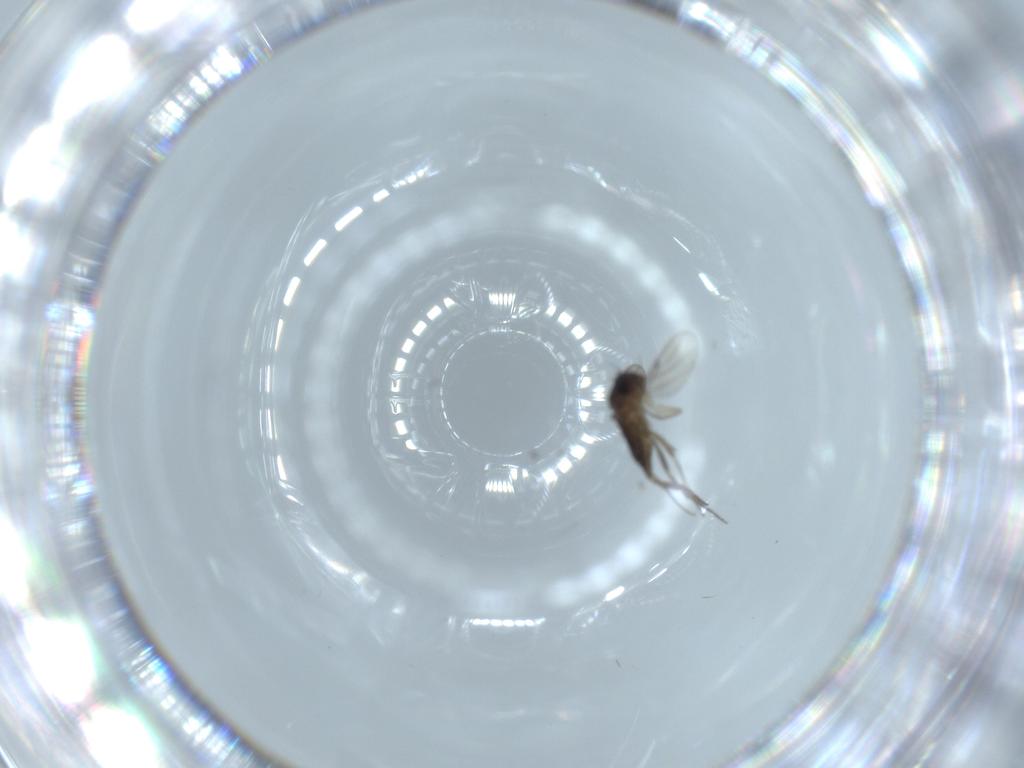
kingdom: Animalia
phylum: Arthropoda
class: Insecta
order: Diptera
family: Phoridae
